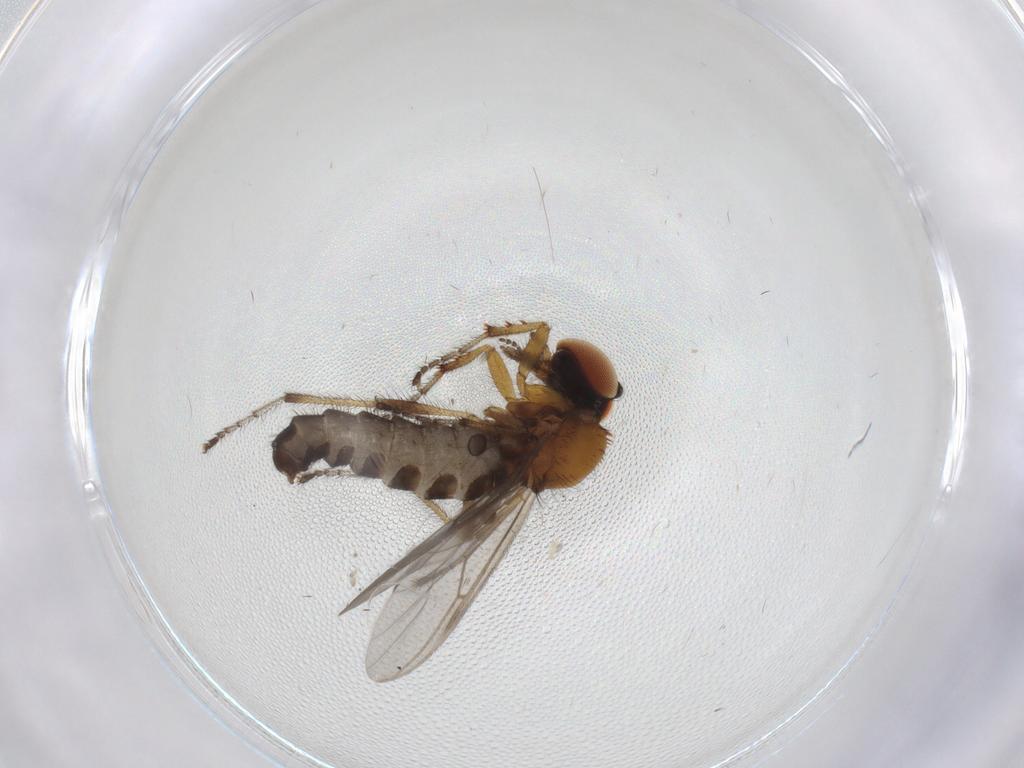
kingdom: Animalia
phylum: Arthropoda
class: Insecta
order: Diptera
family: Bibionidae
